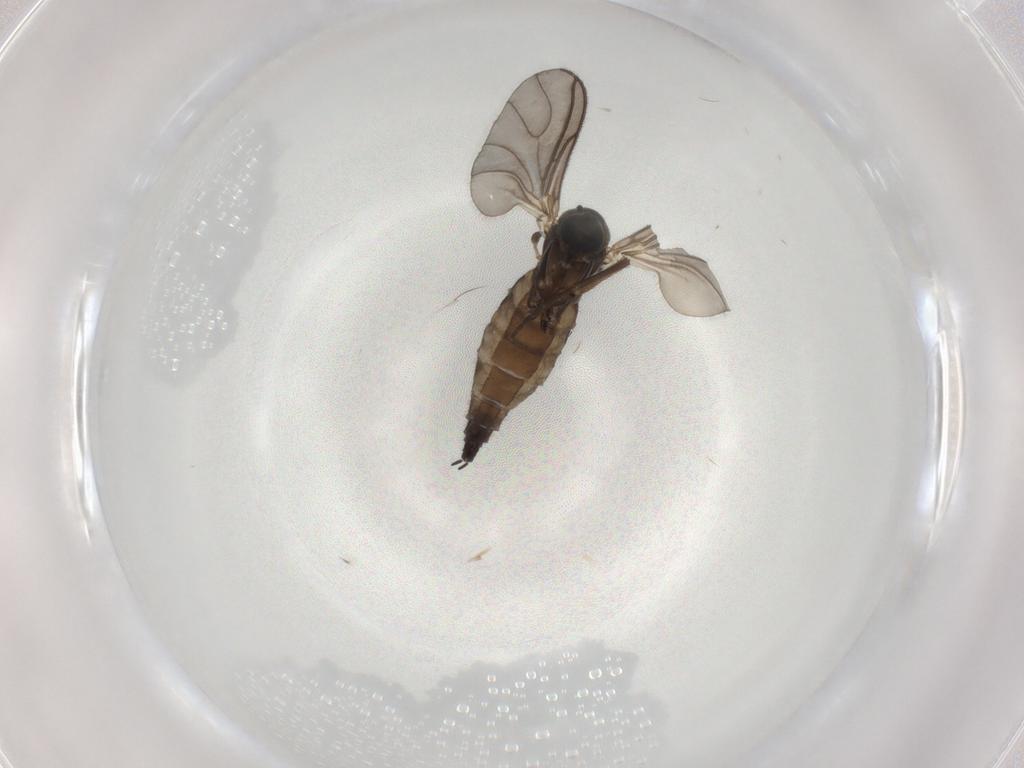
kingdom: Animalia
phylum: Arthropoda
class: Insecta
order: Diptera
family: Sciaridae
